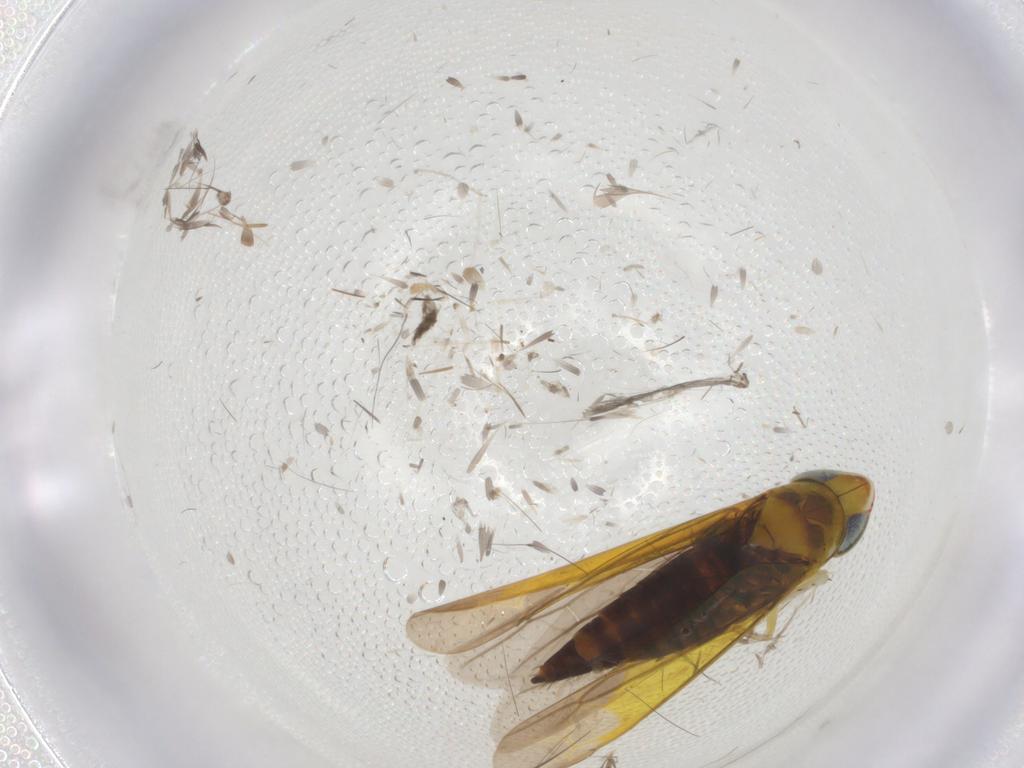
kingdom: Animalia
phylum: Arthropoda
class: Insecta
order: Hemiptera
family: Cicadellidae
